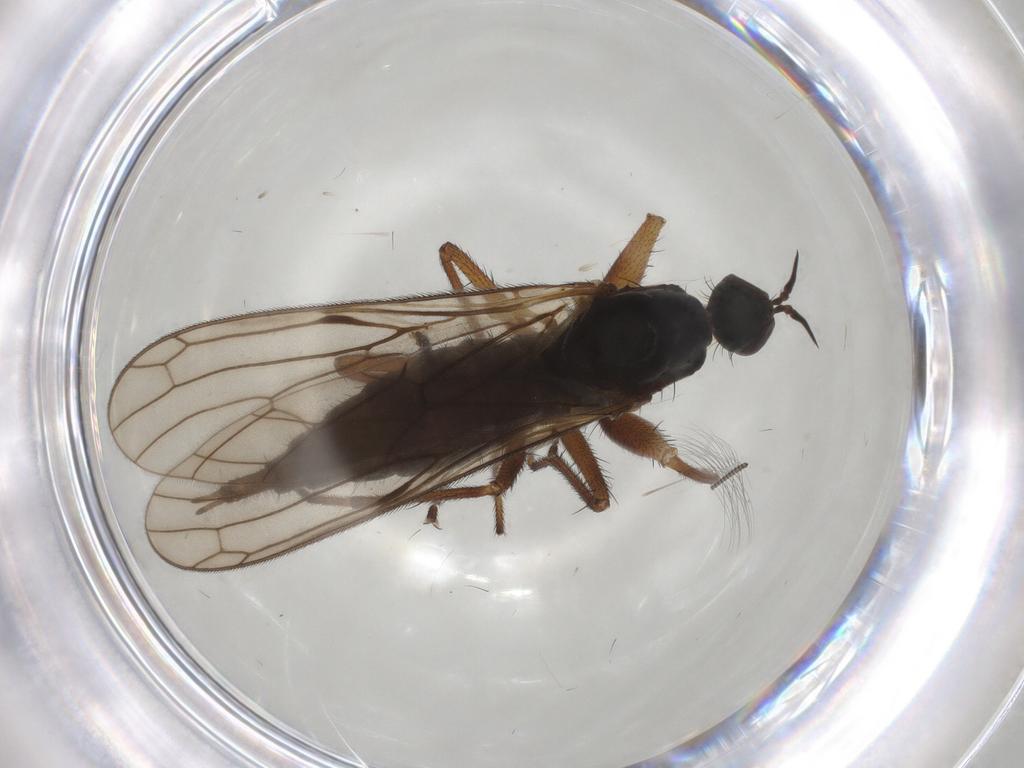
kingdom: Animalia
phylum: Arthropoda
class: Insecta
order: Diptera
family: Empididae
